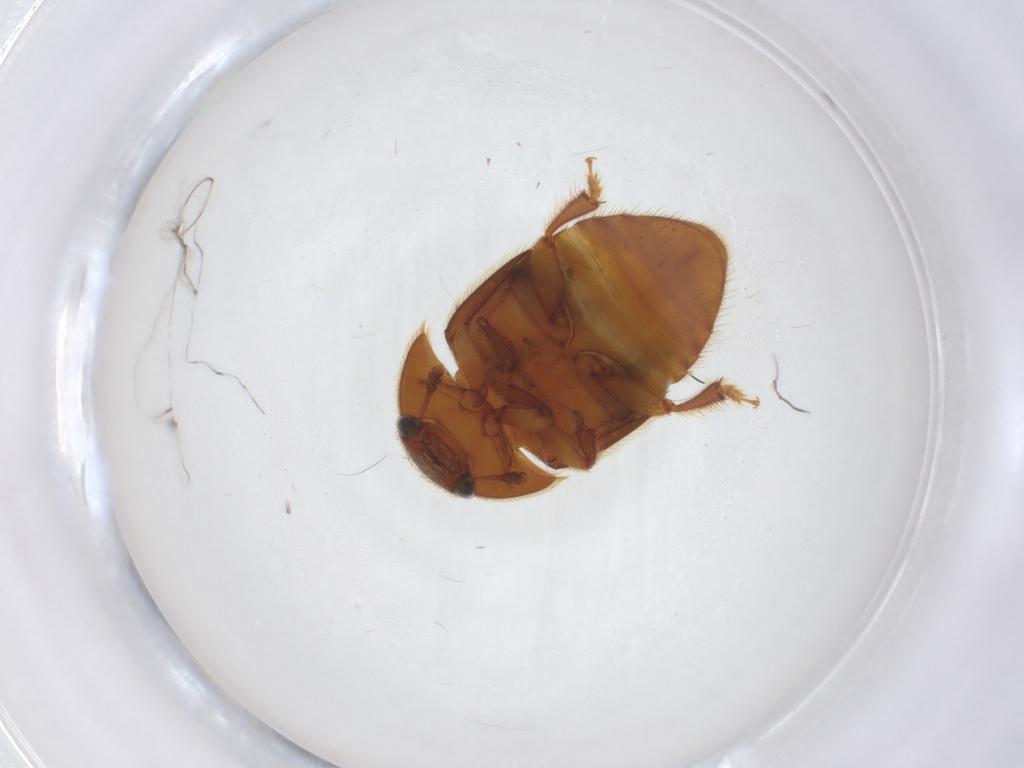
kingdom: Animalia
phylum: Arthropoda
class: Insecta
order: Coleoptera
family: Nitidulidae
